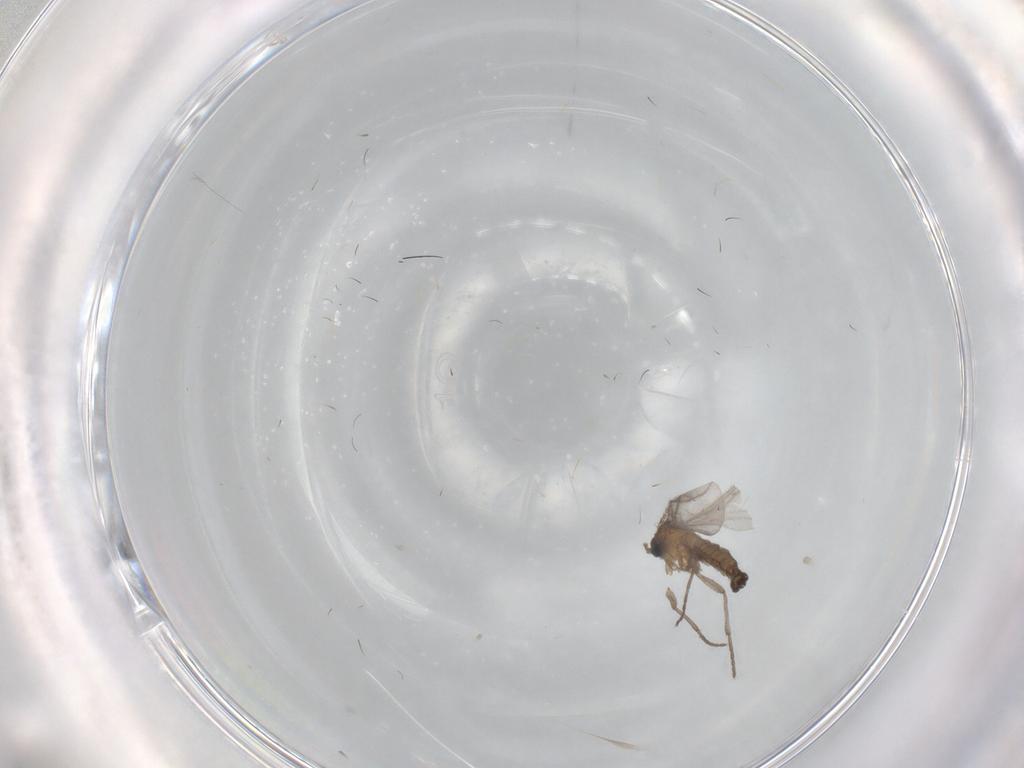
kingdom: Animalia
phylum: Arthropoda
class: Insecta
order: Diptera
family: Sciaridae
